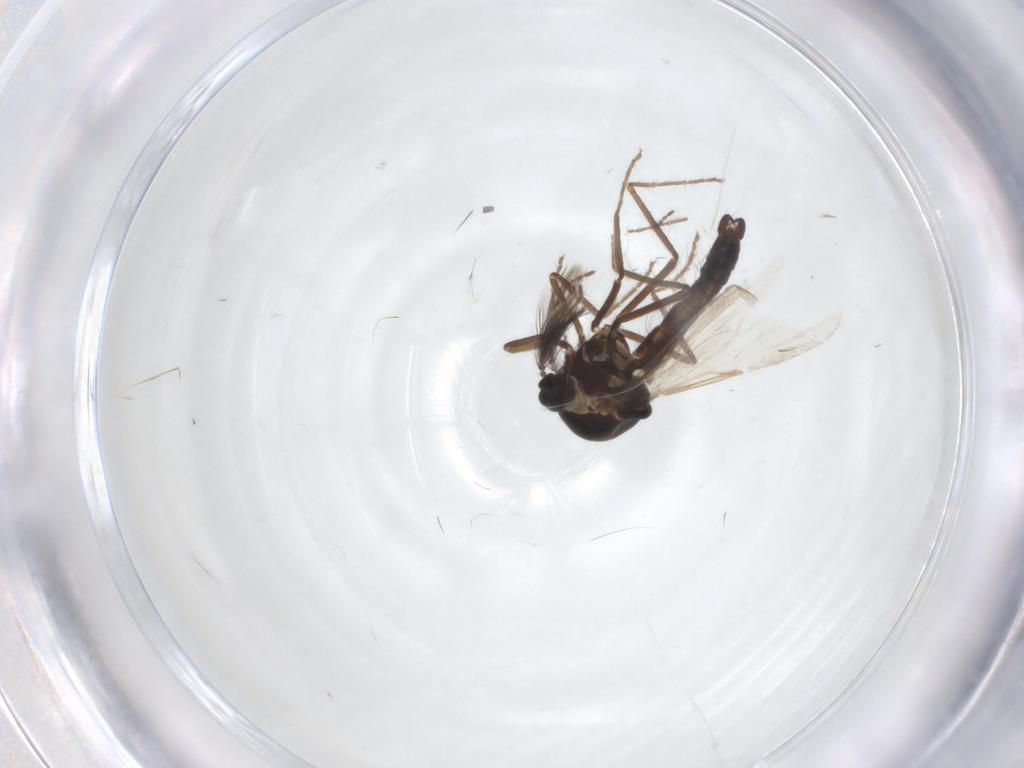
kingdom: Animalia
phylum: Arthropoda
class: Insecta
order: Diptera
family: Ceratopogonidae
